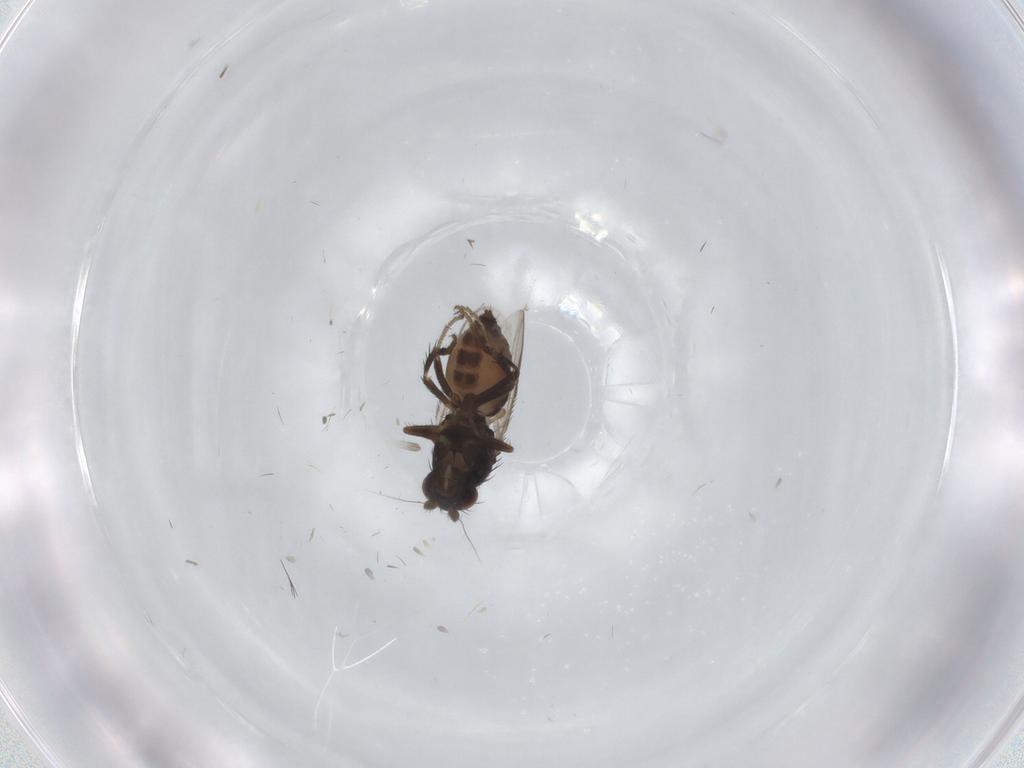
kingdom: Animalia
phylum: Arthropoda
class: Insecta
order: Diptera
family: Sphaeroceridae
